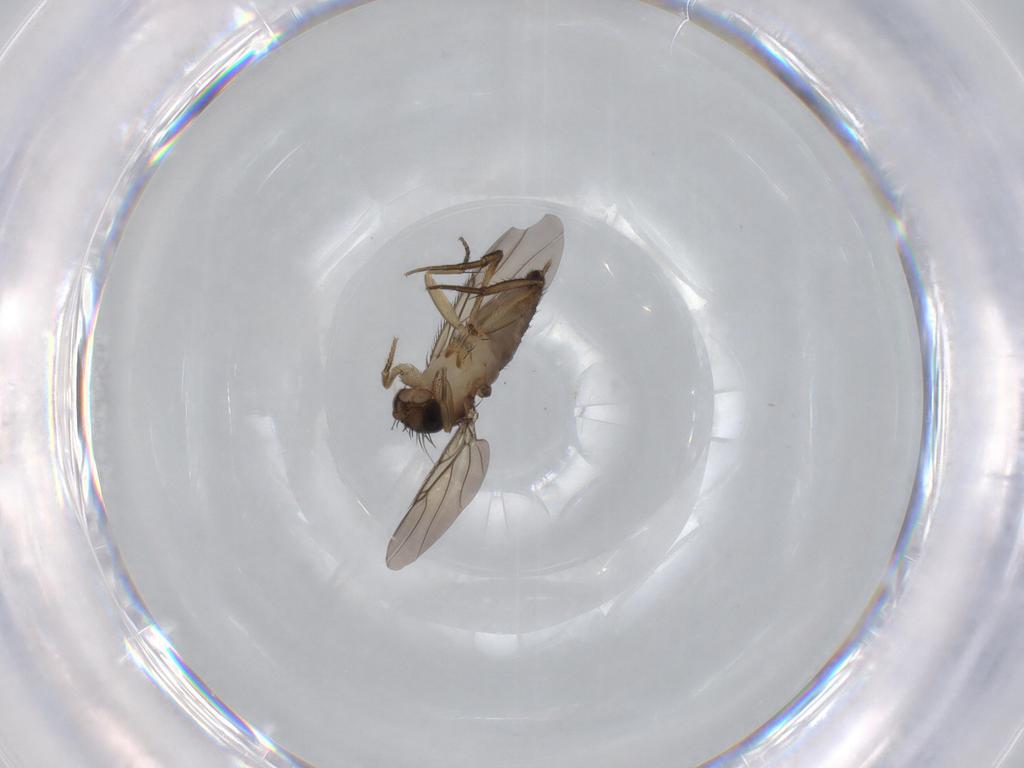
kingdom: Animalia
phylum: Arthropoda
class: Insecta
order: Diptera
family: Phoridae
